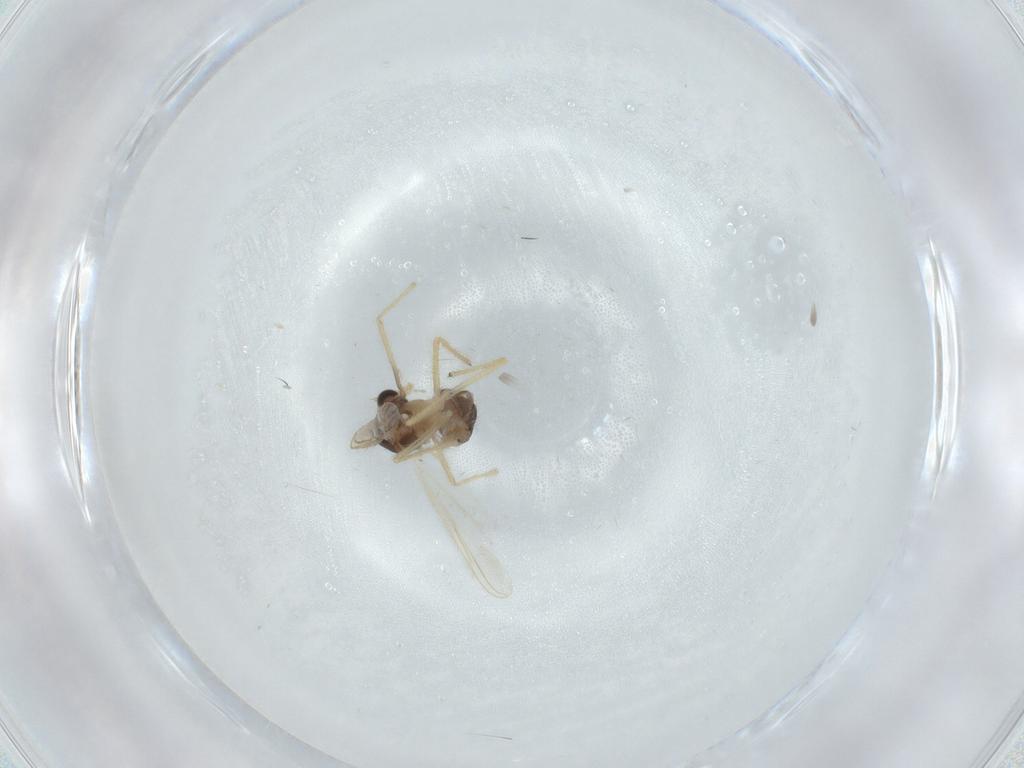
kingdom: Animalia
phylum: Arthropoda
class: Insecta
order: Diptera
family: Chironomidae
